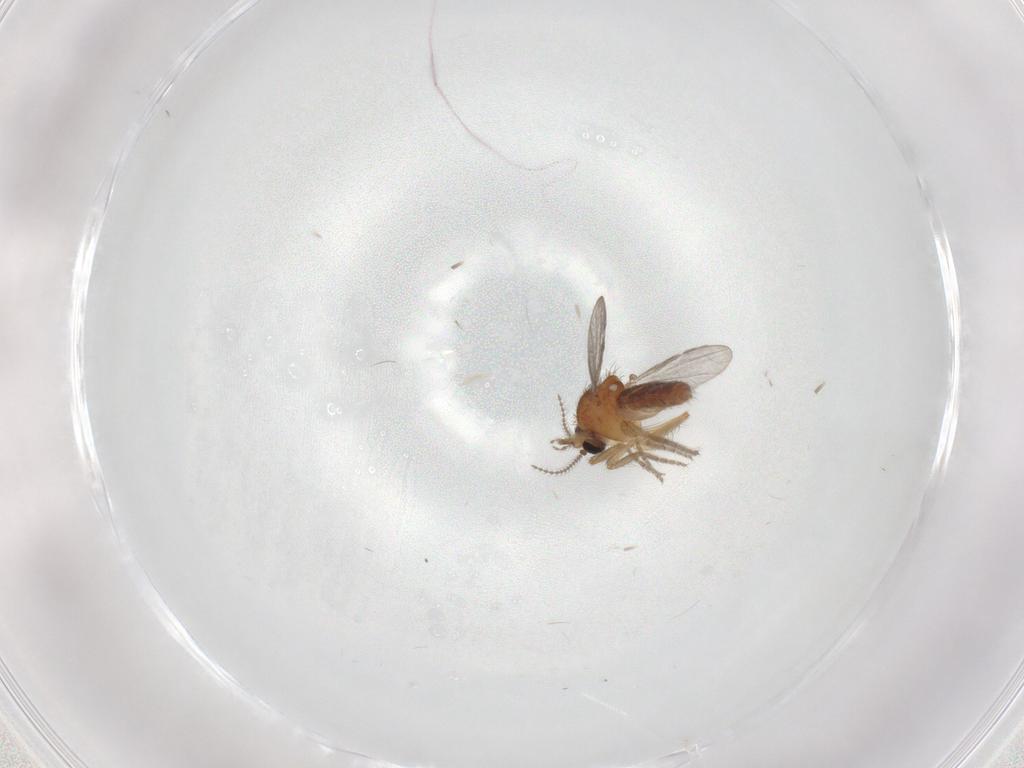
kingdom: Animalia
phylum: Arthropoda
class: Insecta
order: Diptera
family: Ceratopogonidae
